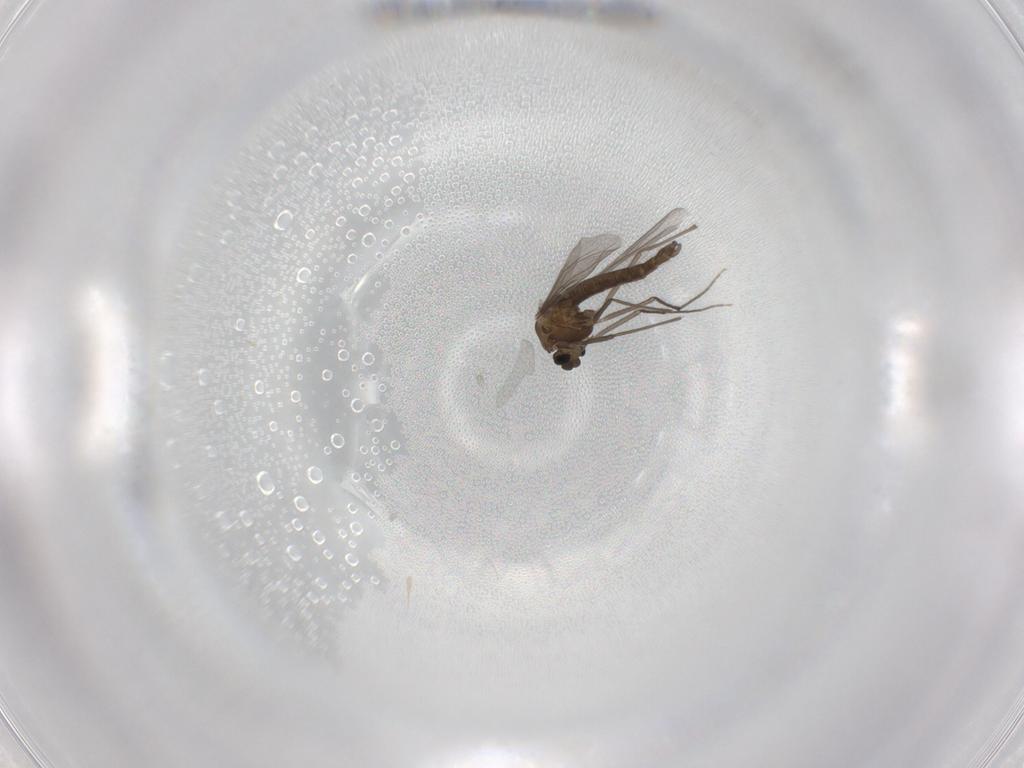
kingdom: Animalia
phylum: Arthropoda
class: Insecta
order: Diptera
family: Chironomidae
